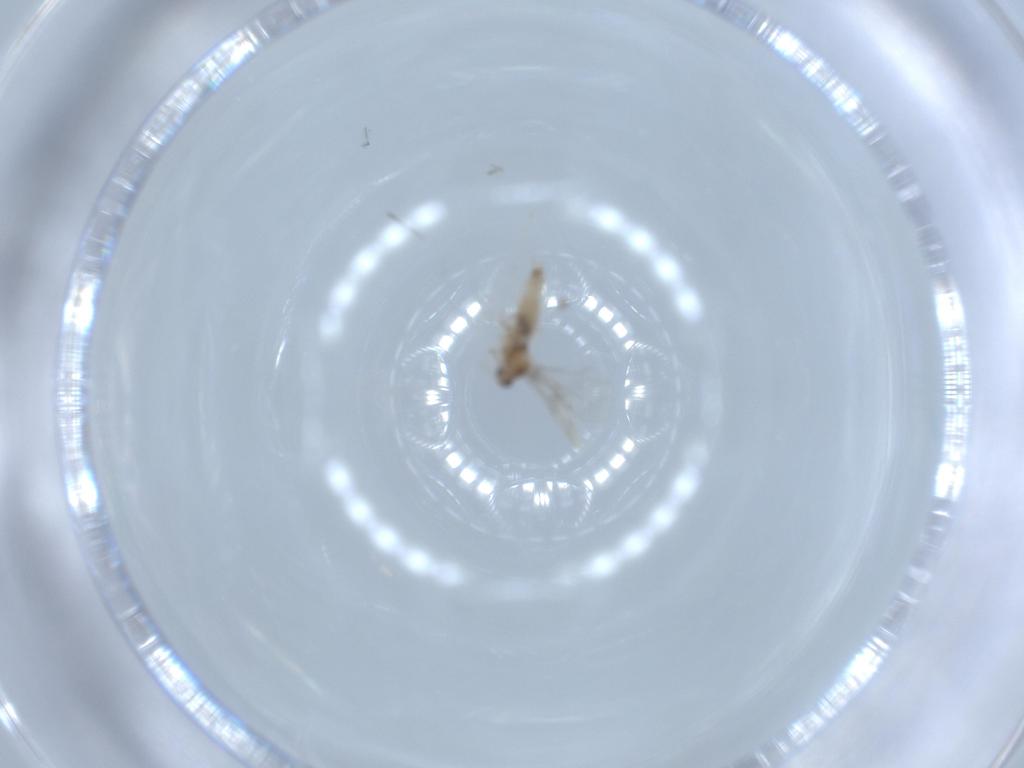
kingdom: Animalia
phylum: Arthropoda
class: Insecta
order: Diptera
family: Cecidomyiidae
